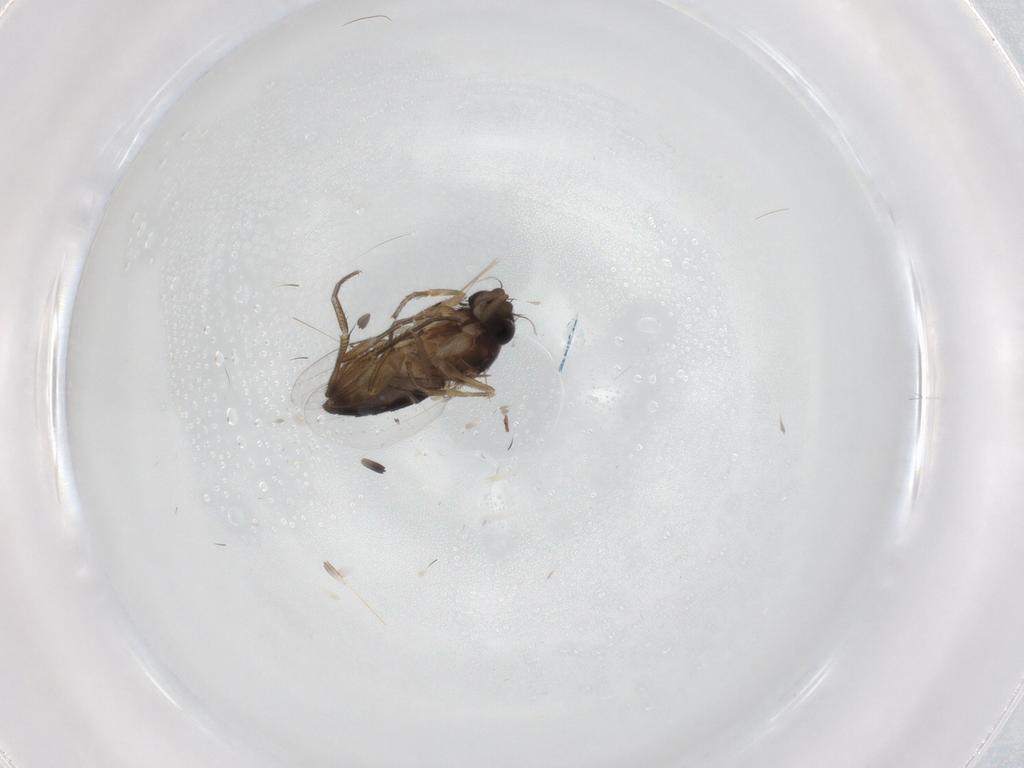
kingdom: Animalia
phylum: Arthropoda
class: Insecta
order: Diptera
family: Phoridae
